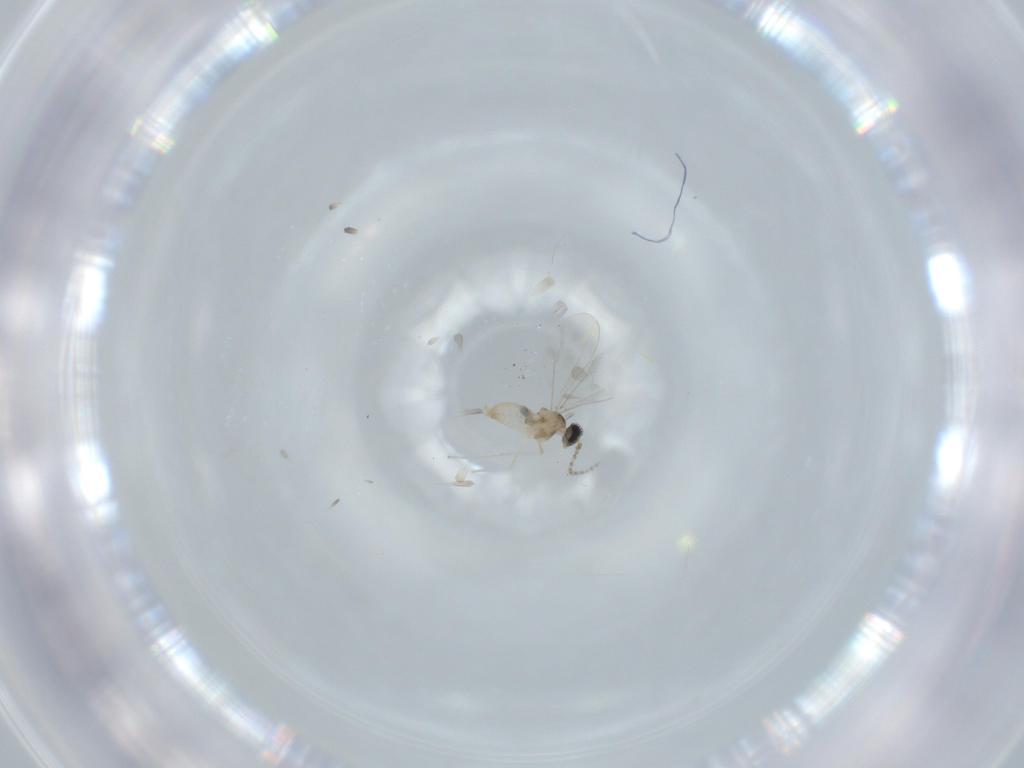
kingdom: Animalia
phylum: Arthropoda
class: Insecta
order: Diptera
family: Cecidomyiidae
